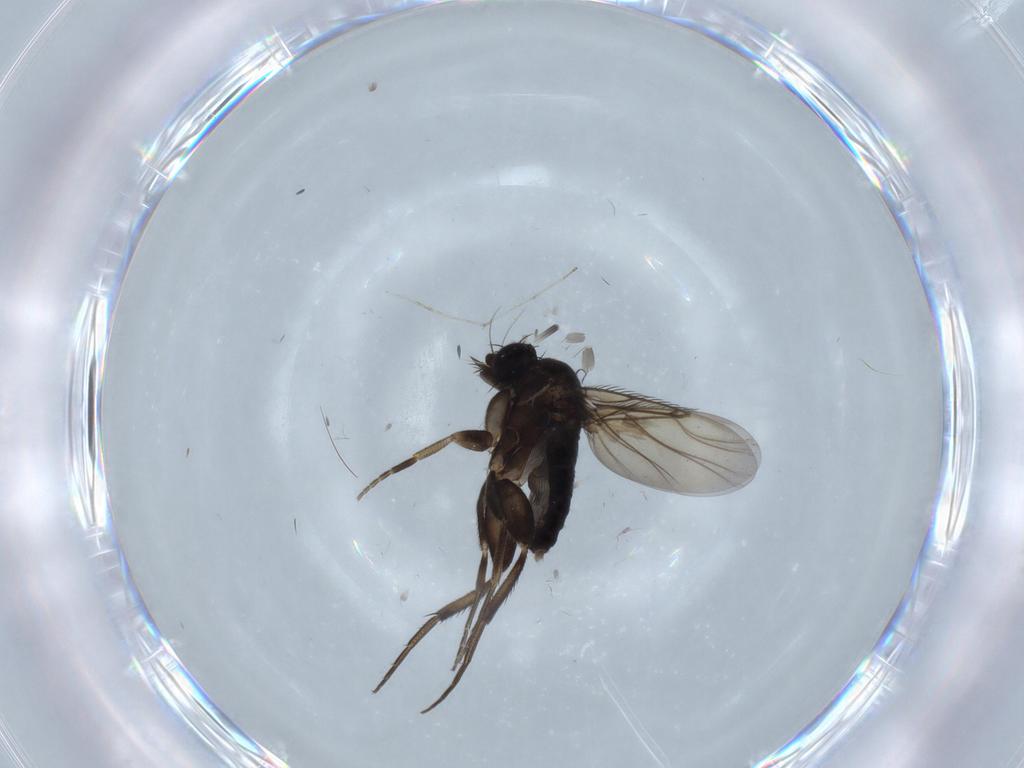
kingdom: Animalia
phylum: Arthropoda
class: Insecta
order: Diptera
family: Phoridae
